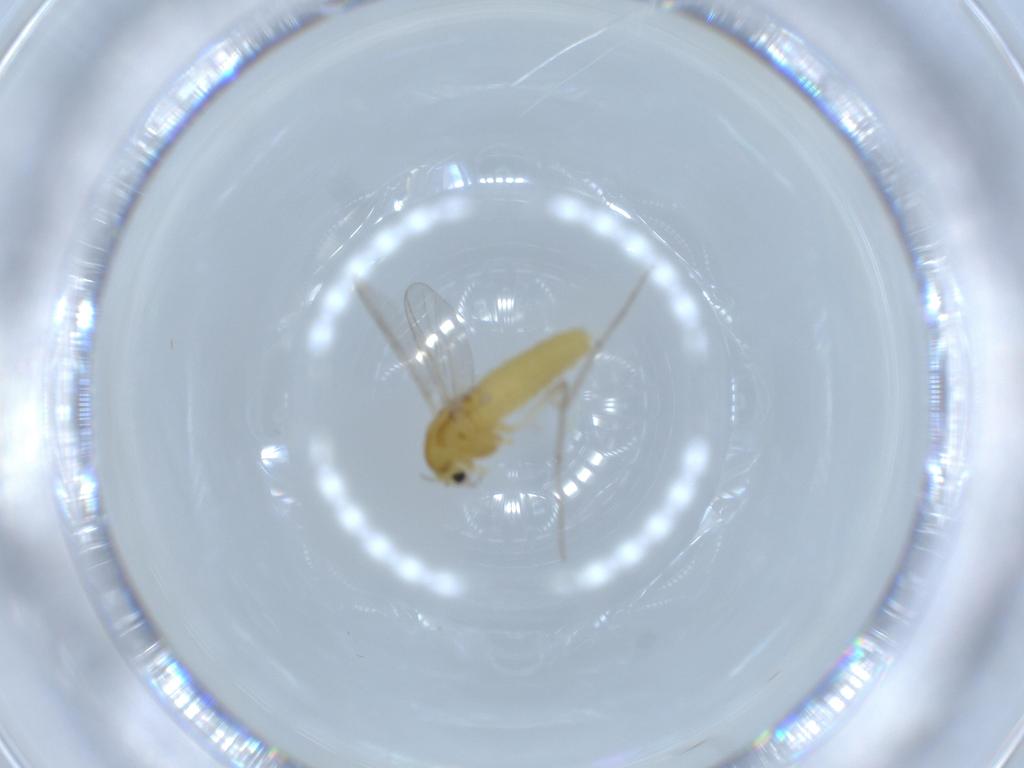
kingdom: Animalia
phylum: Arthropoda
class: Insecta
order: Diptera
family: Chironomidae
